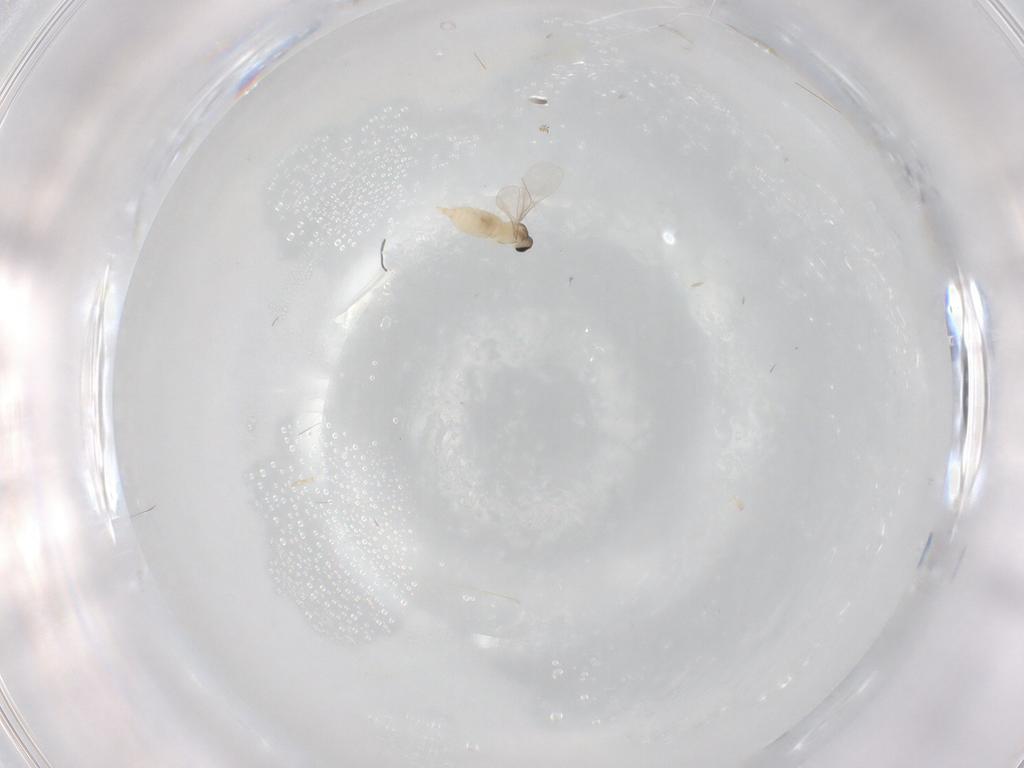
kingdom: Animalia
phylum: Arthropoda
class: Insecta
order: Diptera
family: Cecidomyiidae
